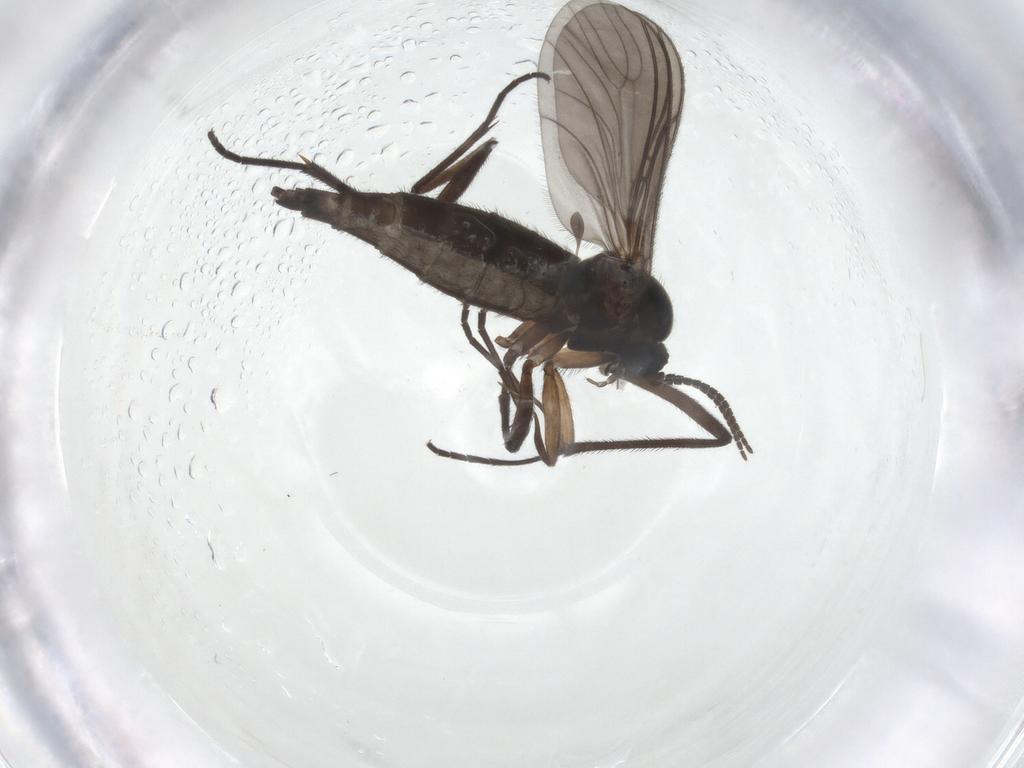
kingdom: Animalia
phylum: Arthropoda
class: Insecta
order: Diptera
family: Sciaridae
